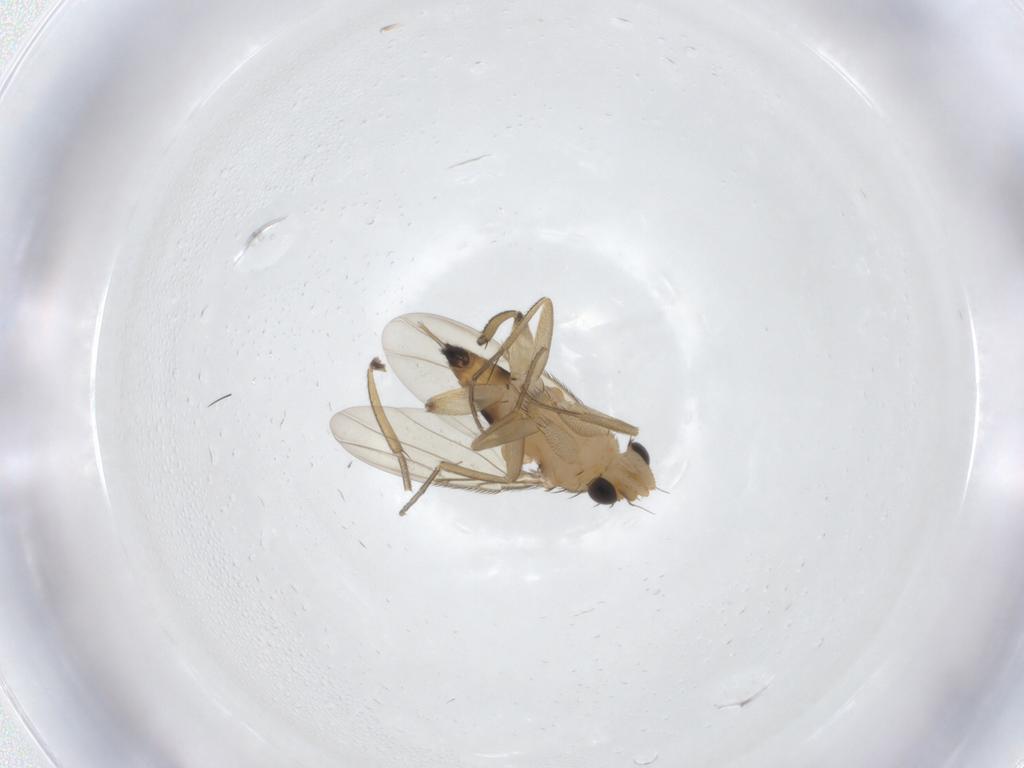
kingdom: Animalia
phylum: Arthropoda
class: Insecta
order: Diptera
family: Phoridae
